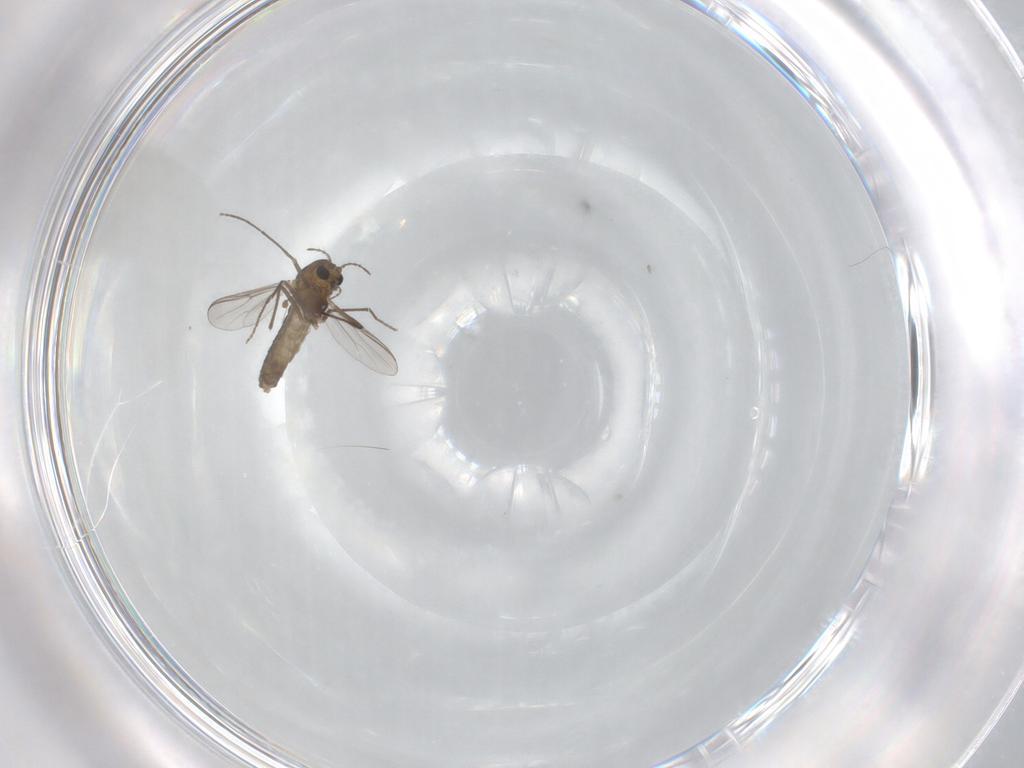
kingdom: Animalia
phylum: Arthropoda
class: Insecta
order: Diptera
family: Chironomidae
